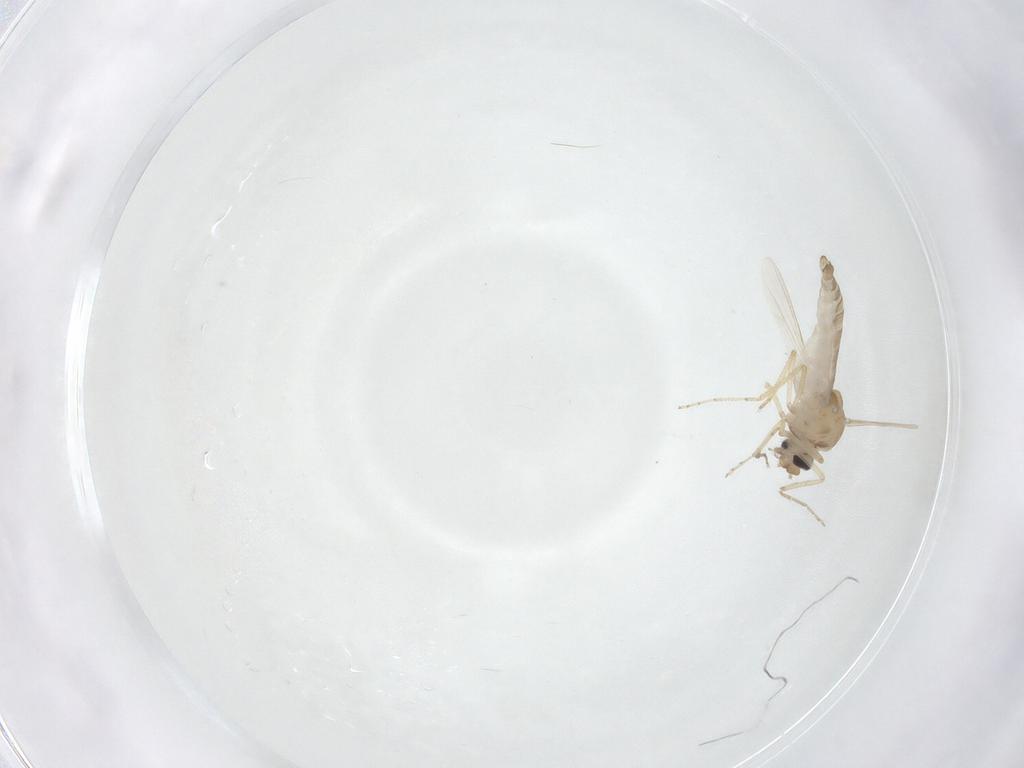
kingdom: Animalia
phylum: Arthropoda
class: Insecta
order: Diptera
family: Ceratopogonidae
